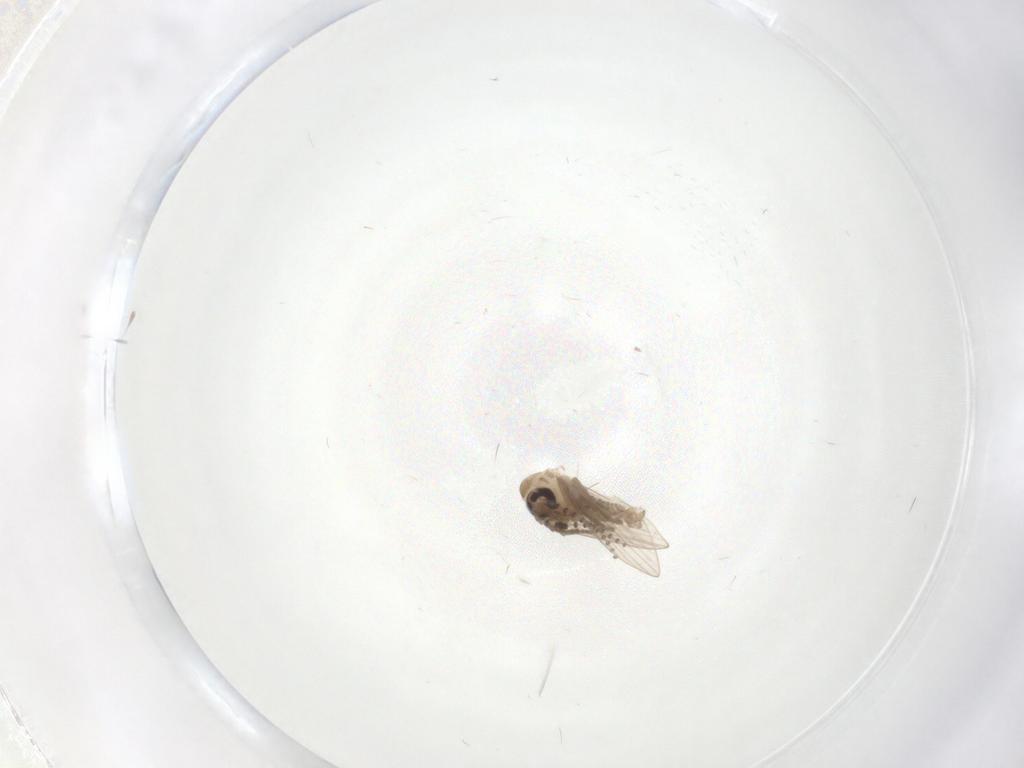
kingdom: Animalia
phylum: Arthropoda
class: Insecta
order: Diptera
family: Psychodidae
